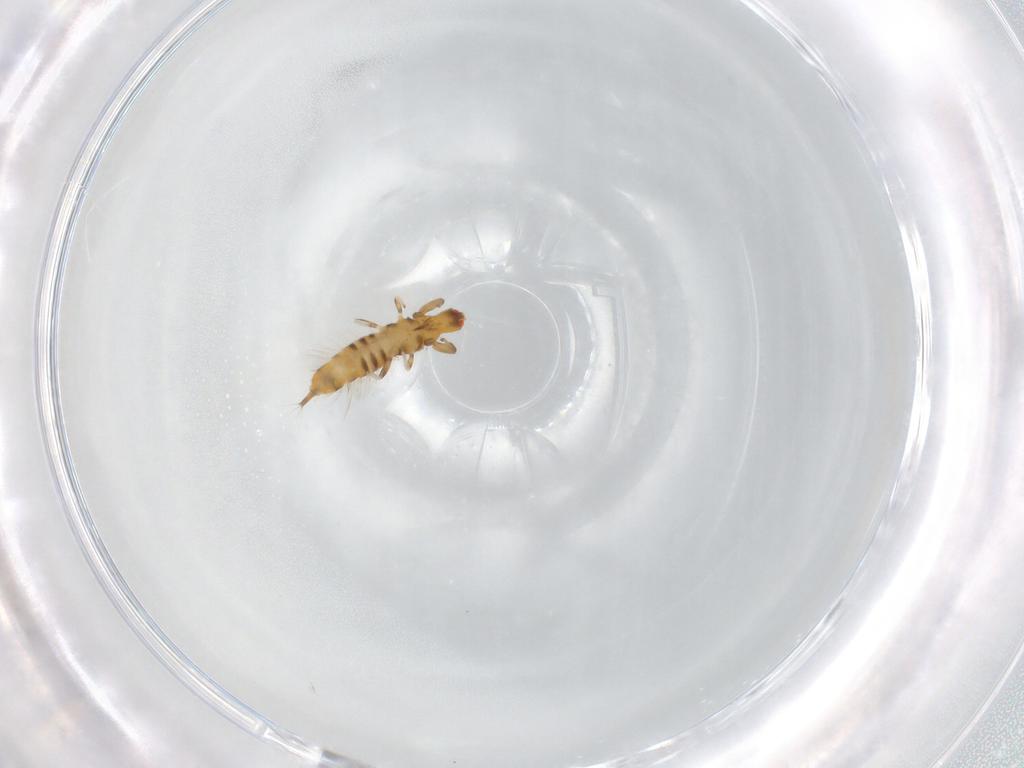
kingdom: Animalia
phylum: Arthropoda
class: Insecta
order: Thysanoptera
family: Phlaeothripidae
